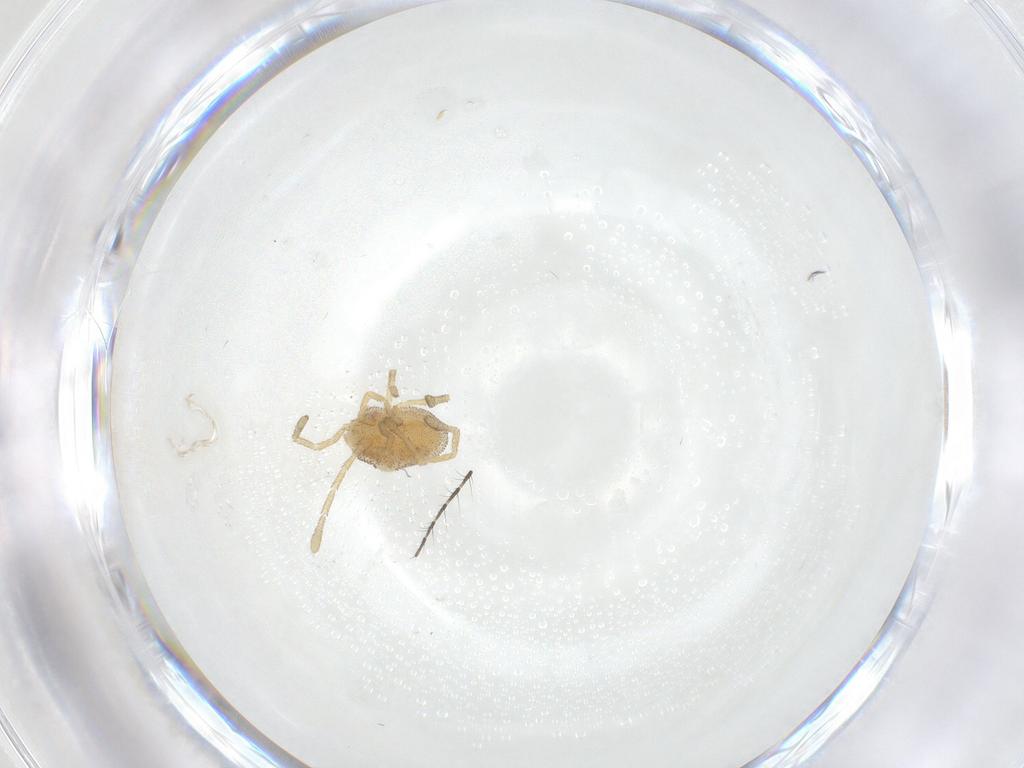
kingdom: Animalia
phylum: Arthropoda
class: Arachnida
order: Trombidiformes
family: Smarididae
